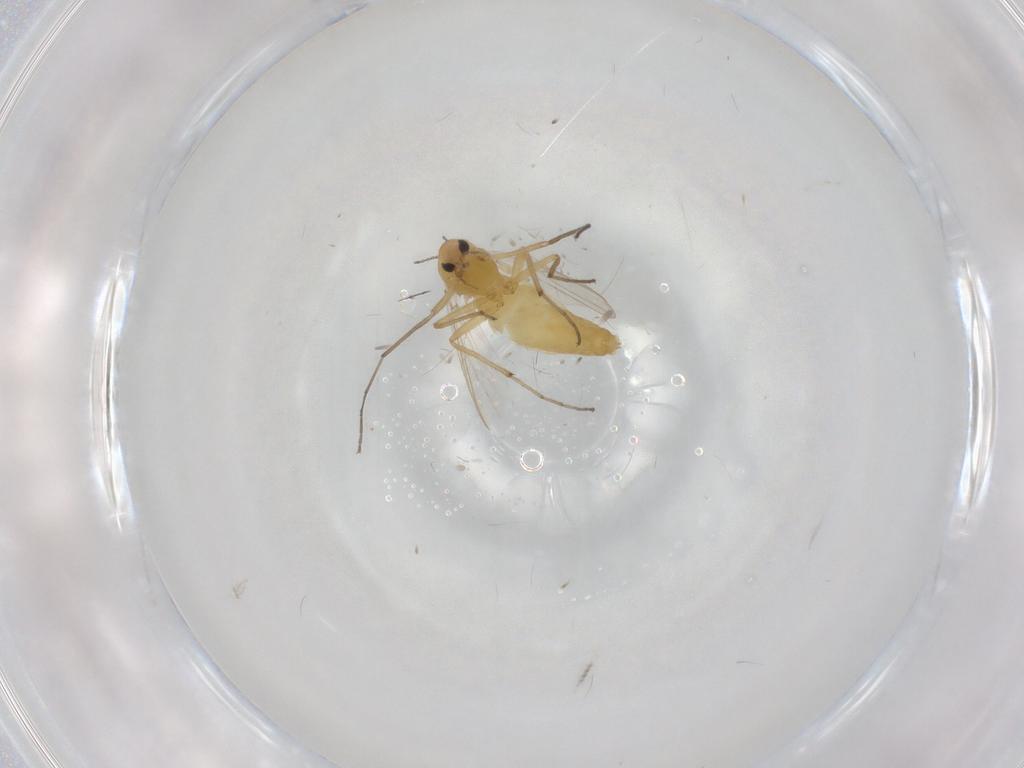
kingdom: Animalia
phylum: Arthropoda
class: Insecta
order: Diptera
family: Chironomidae
